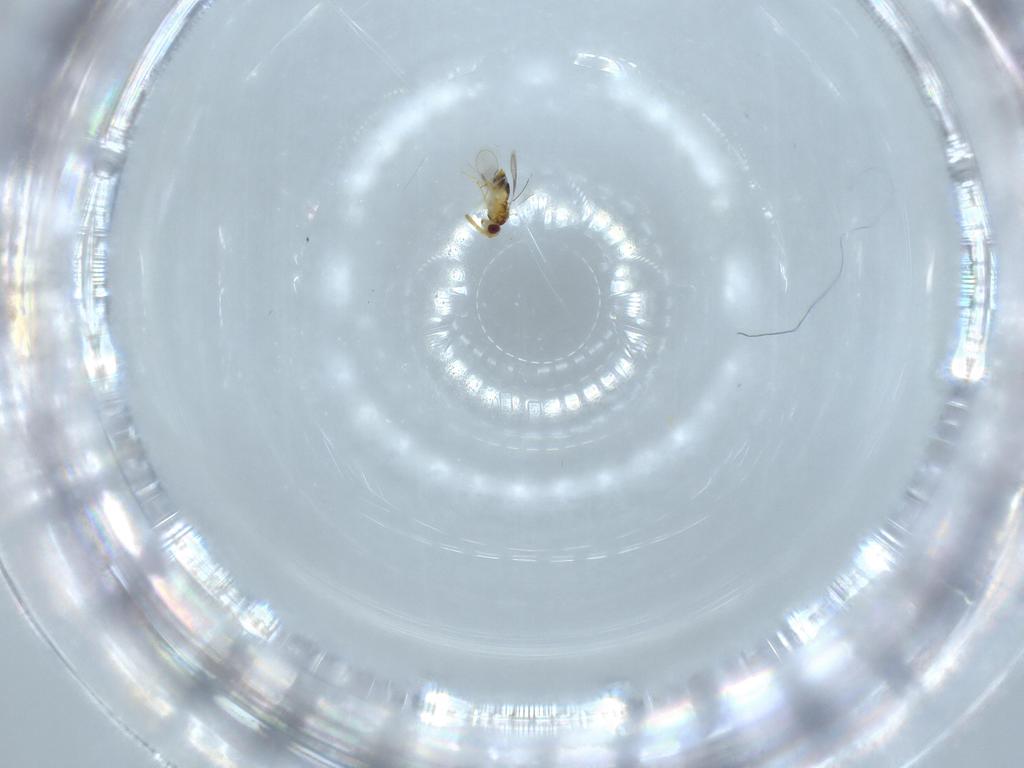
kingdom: Animalia
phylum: Arthropoda
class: Insecta
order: Hymenoptera
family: Aphelinidae
